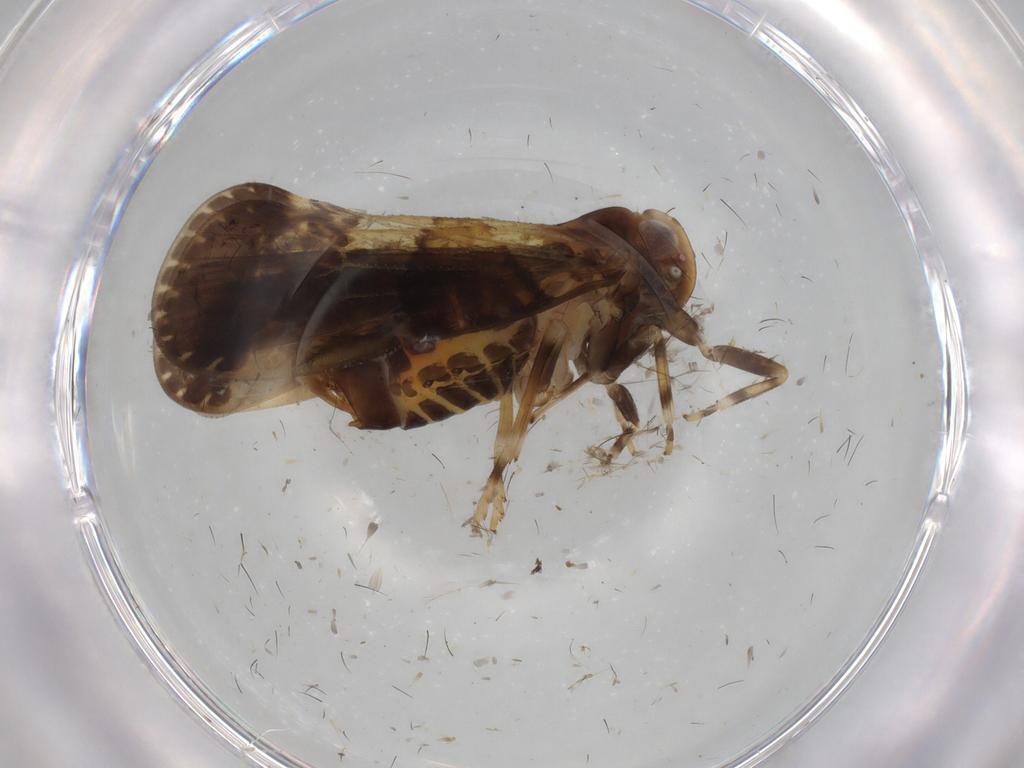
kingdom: Animalia
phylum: Arthropoda
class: Insecta
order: Hemiptera
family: Cixiidae
